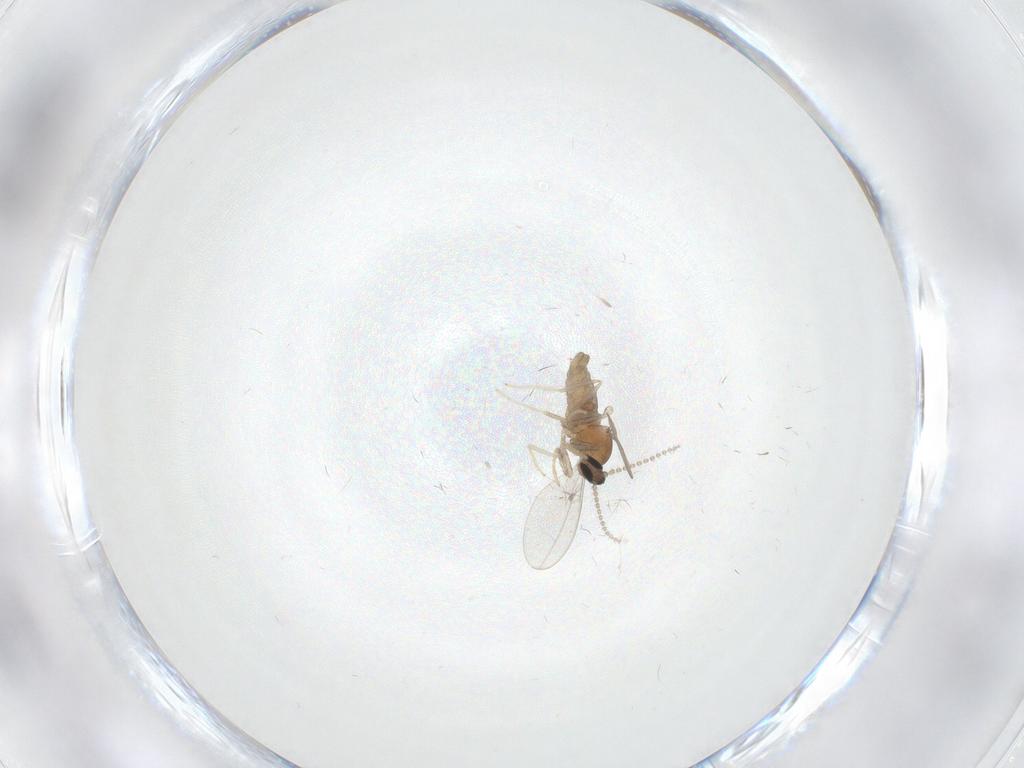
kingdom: Animalia
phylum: Arthropoda
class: Insecta
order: Diptera
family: Cecidomyiidae
